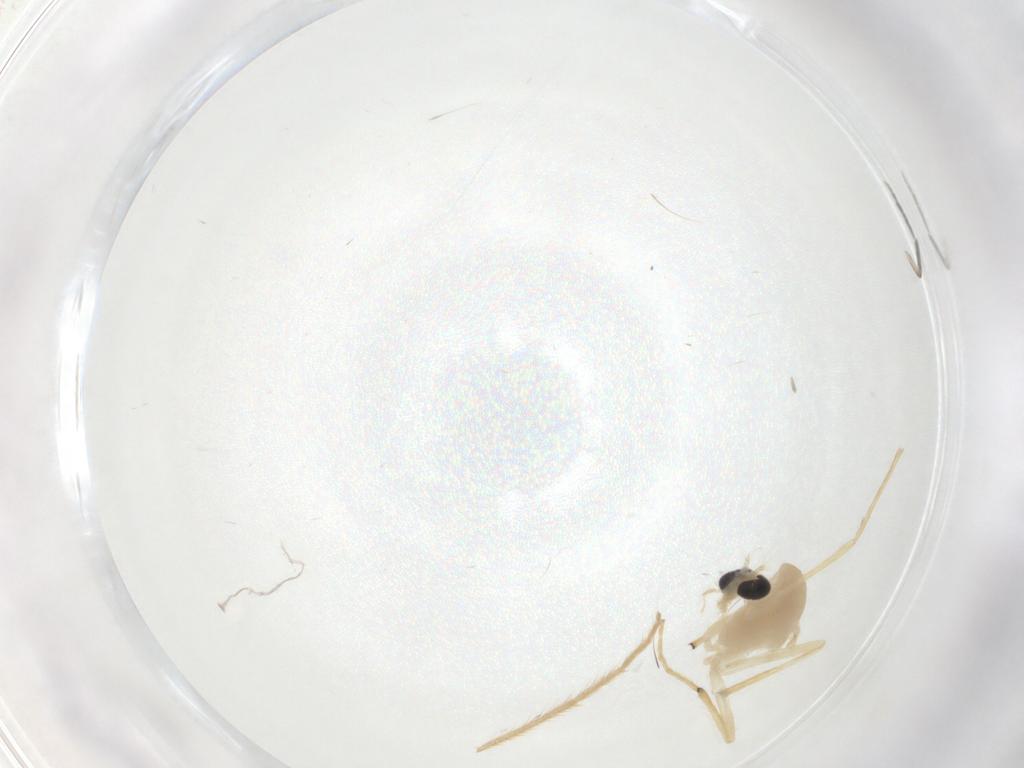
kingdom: Animalia
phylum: Arthropoda
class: Insecta
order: Diptera
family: Chironomidae
